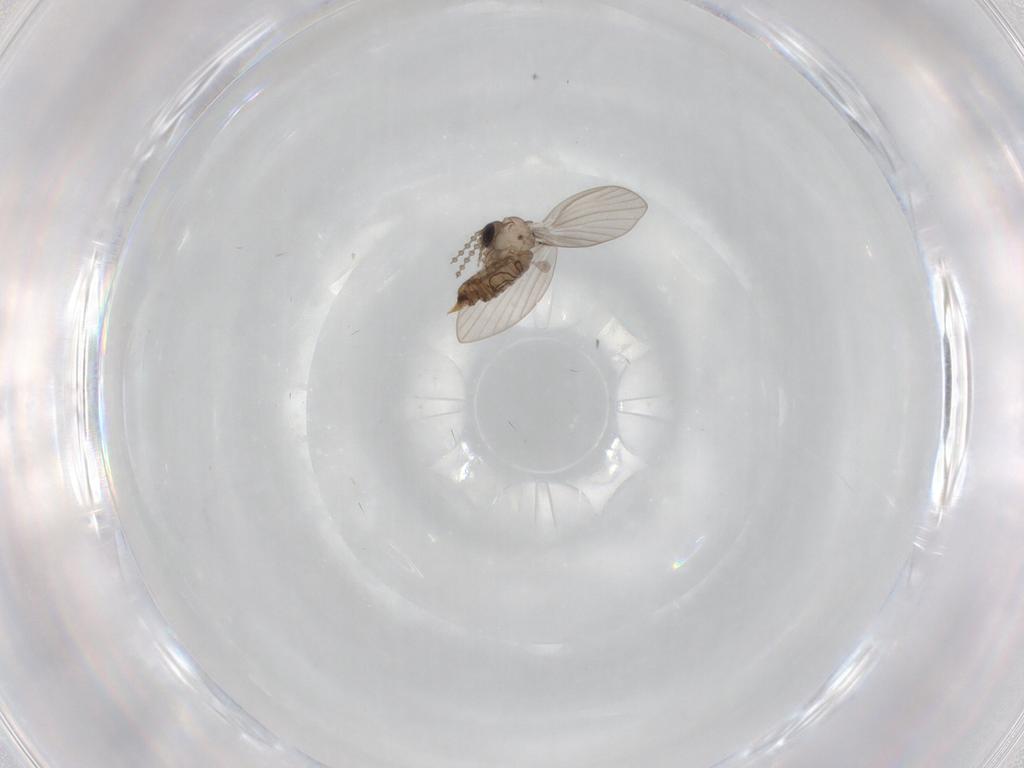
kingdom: Animalia
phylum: Arthropoda
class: Insecta
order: Diptera
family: Psychodidae
